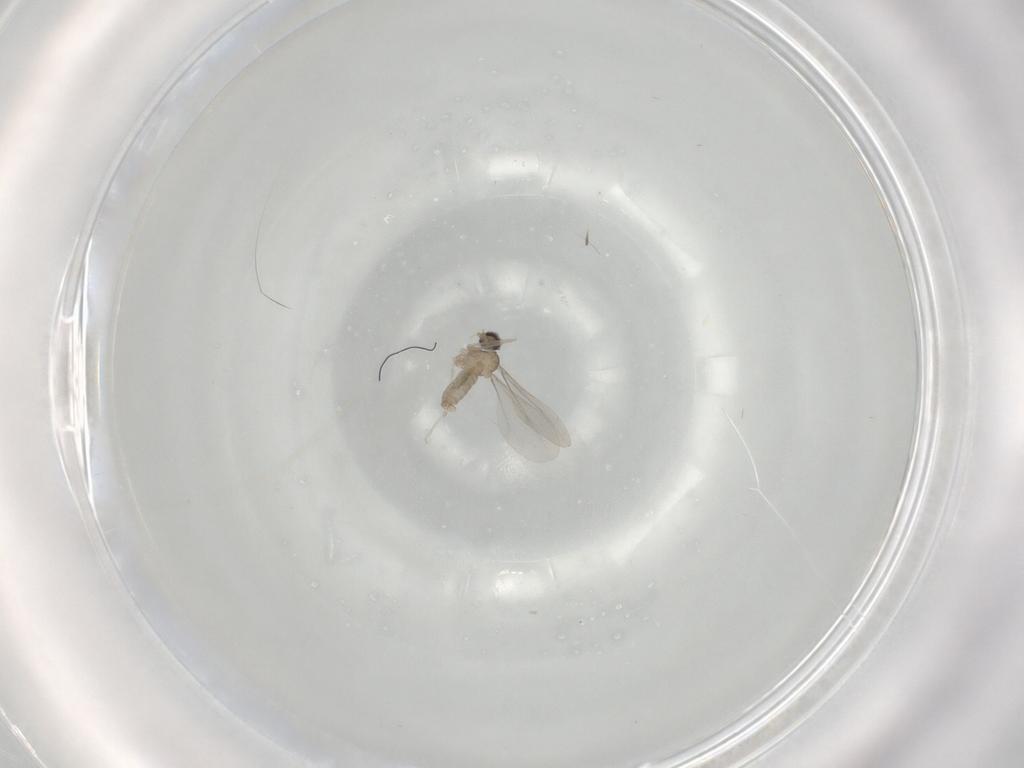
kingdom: Animalia
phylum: Arthropoda
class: Insecta
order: Diptera
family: Cecidomyiidae
